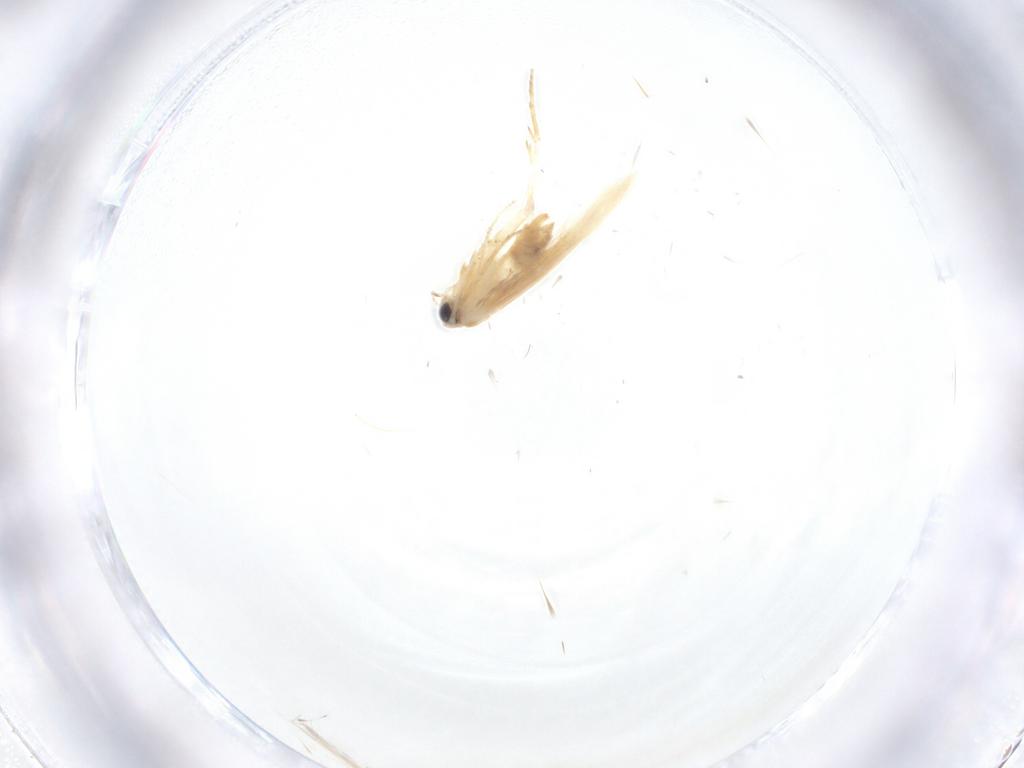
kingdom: Animalia
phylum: Arthropoda
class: Insecta
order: Lepidoptera
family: Nepticulidae
